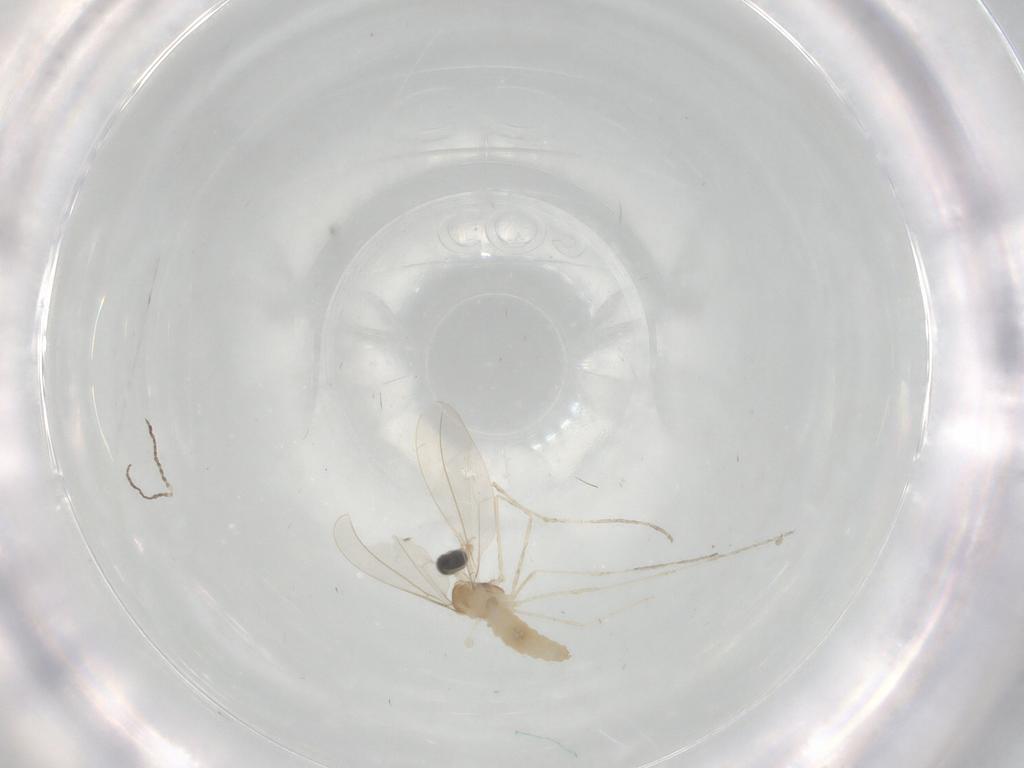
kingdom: Animalia
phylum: Arthropoda
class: Insecta
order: Diptera
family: Cecidomyiidae
